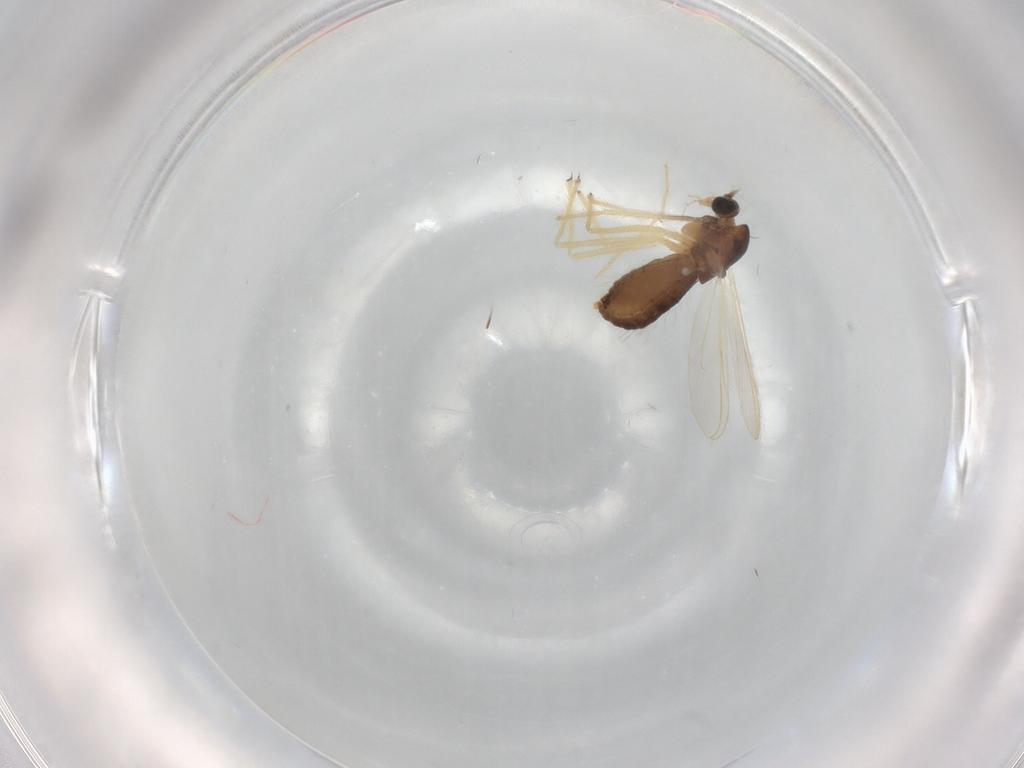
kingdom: Animalia
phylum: Arthropoda
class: Insecta
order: Diptera
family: Chironomidae
